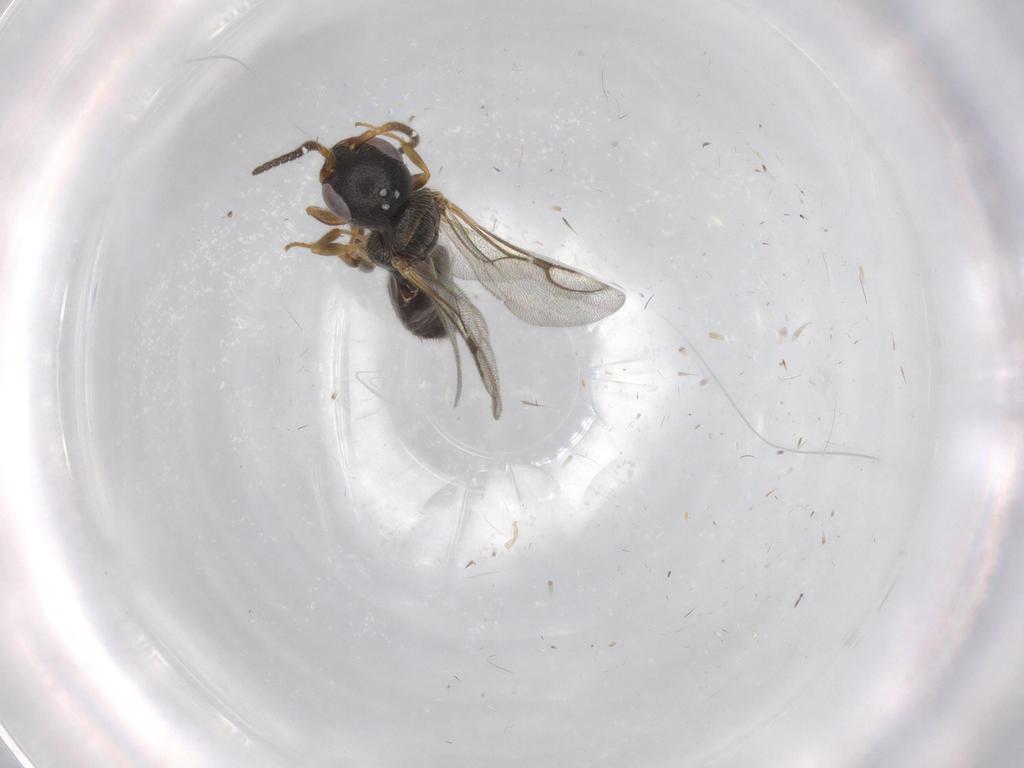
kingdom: Animalia
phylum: Arthropoda
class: Insecta
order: Hymenoptera
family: Bethylidae
